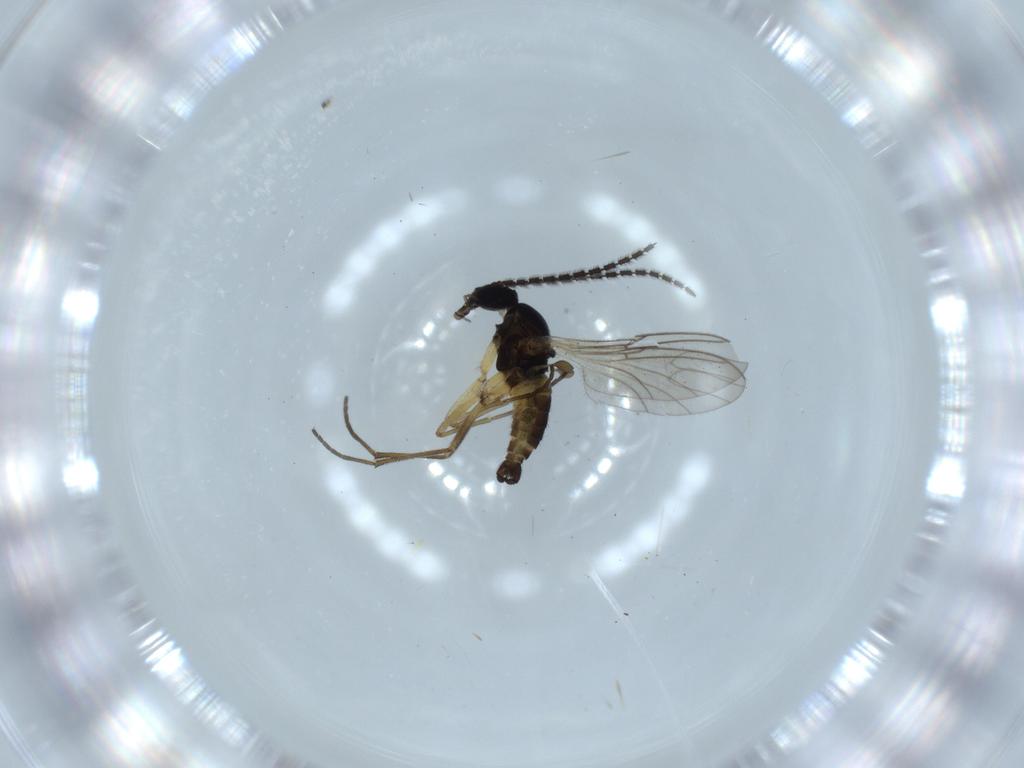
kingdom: Animalia
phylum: Arthropoda
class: Insecta
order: Diptera
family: Sciaridae
